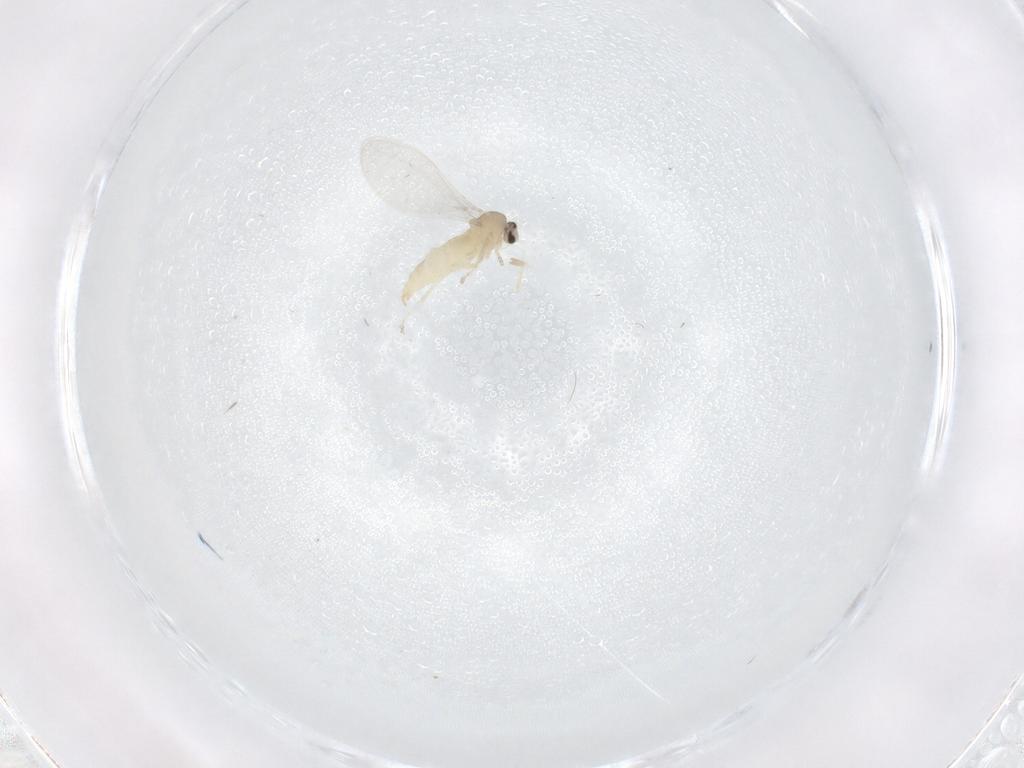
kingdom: Animalia
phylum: Arthropoda
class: Insecta
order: Diptera
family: Cecidomyiidae
